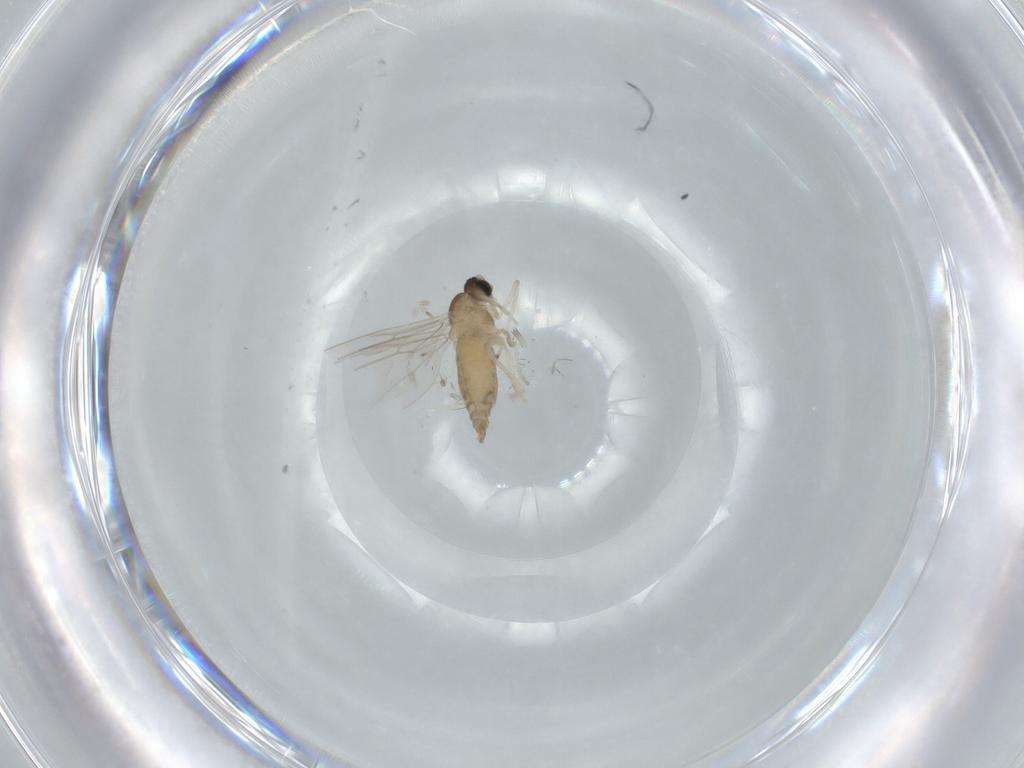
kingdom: Animalia
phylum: Arthropoda
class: Insecta
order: Diptera
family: Cecidomyiidae
